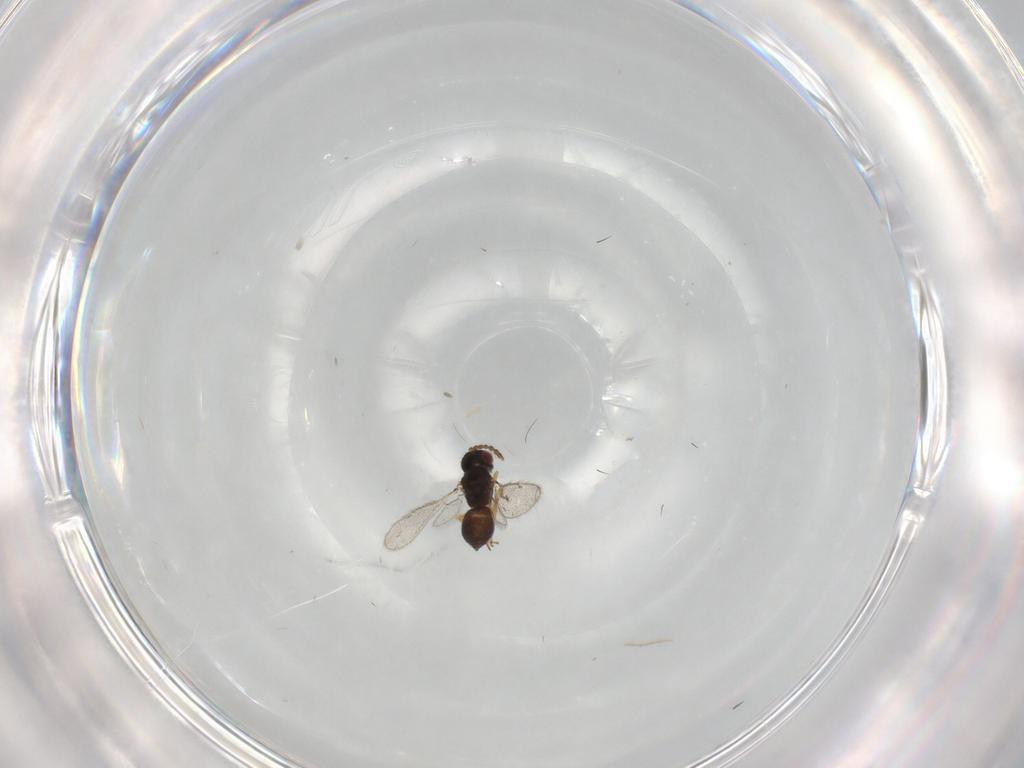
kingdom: Animalia
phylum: Arthropoda
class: Insecta
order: Hymenoptera
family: Eulophidae
